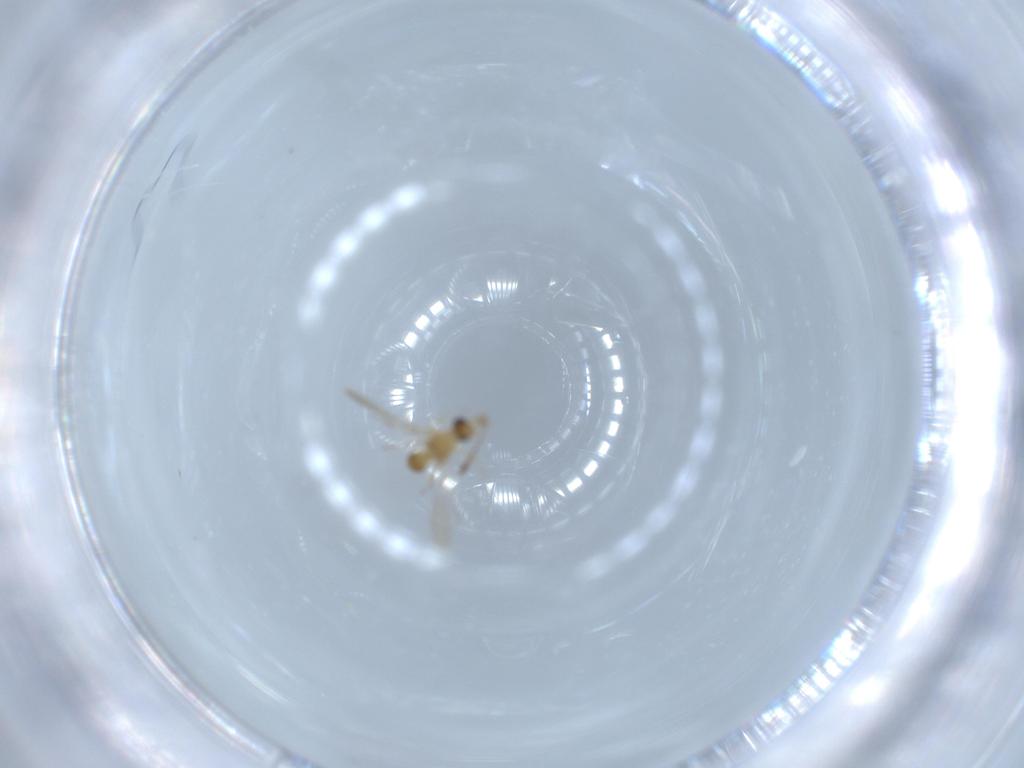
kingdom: Animalia
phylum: Arthropoda
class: Insecta
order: Hymenoptera
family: Mymaridae
